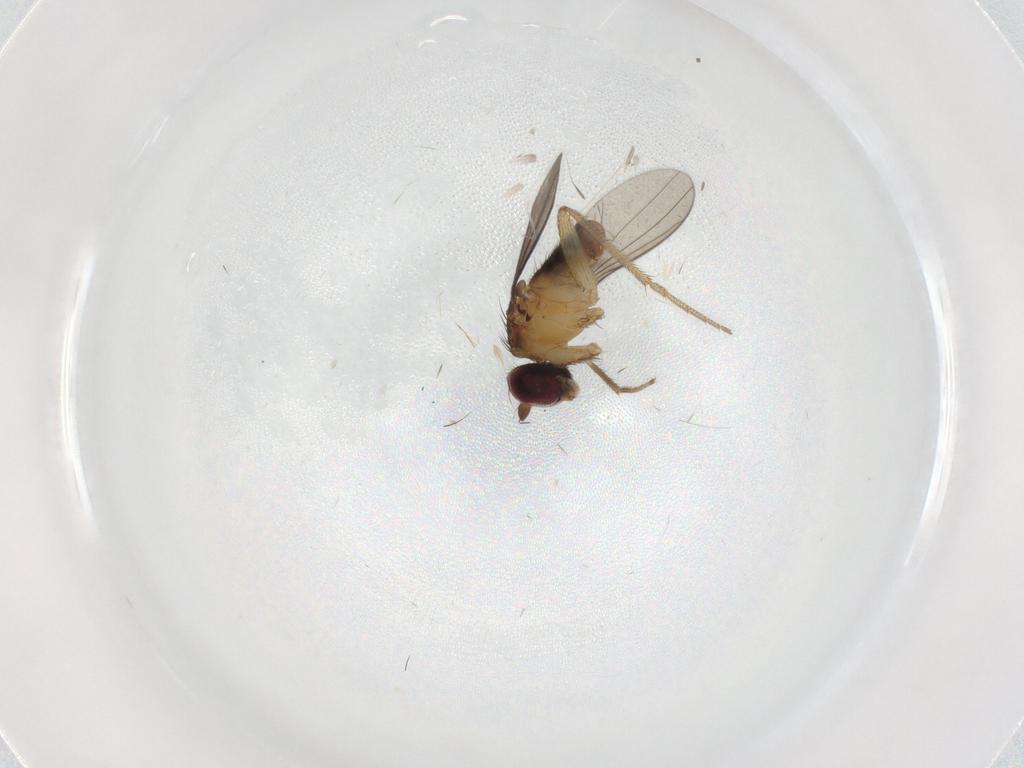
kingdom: Animalia
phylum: Arthropoda
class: Insecta
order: Diptera
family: Dolichopodidae
